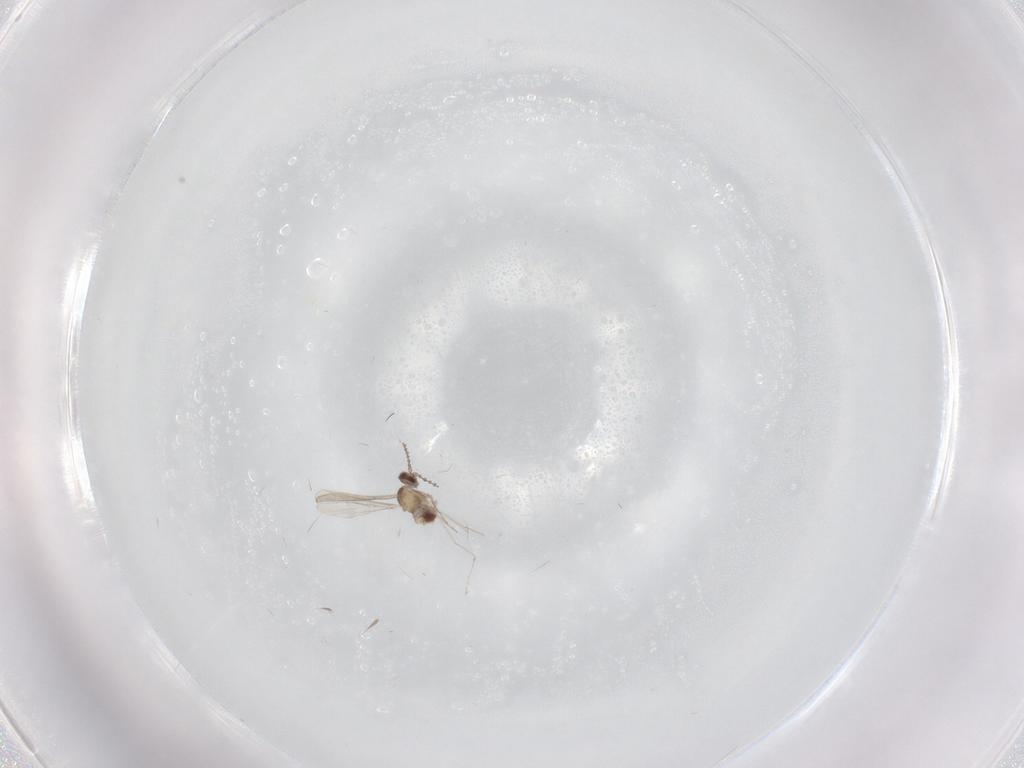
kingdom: Animalia
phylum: Arthropoda
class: Insecta
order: Diptera
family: Cecidomyiidae
